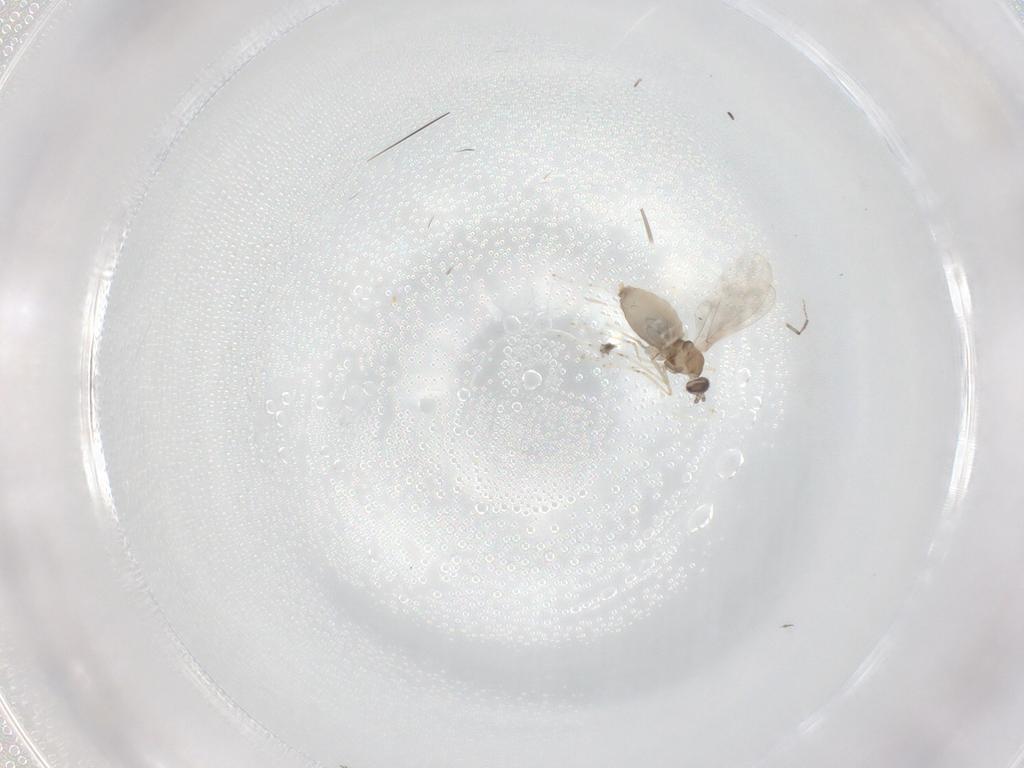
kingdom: Animalia
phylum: Arthropoda
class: Insecta
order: Diptera
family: Cecidomyiidae
